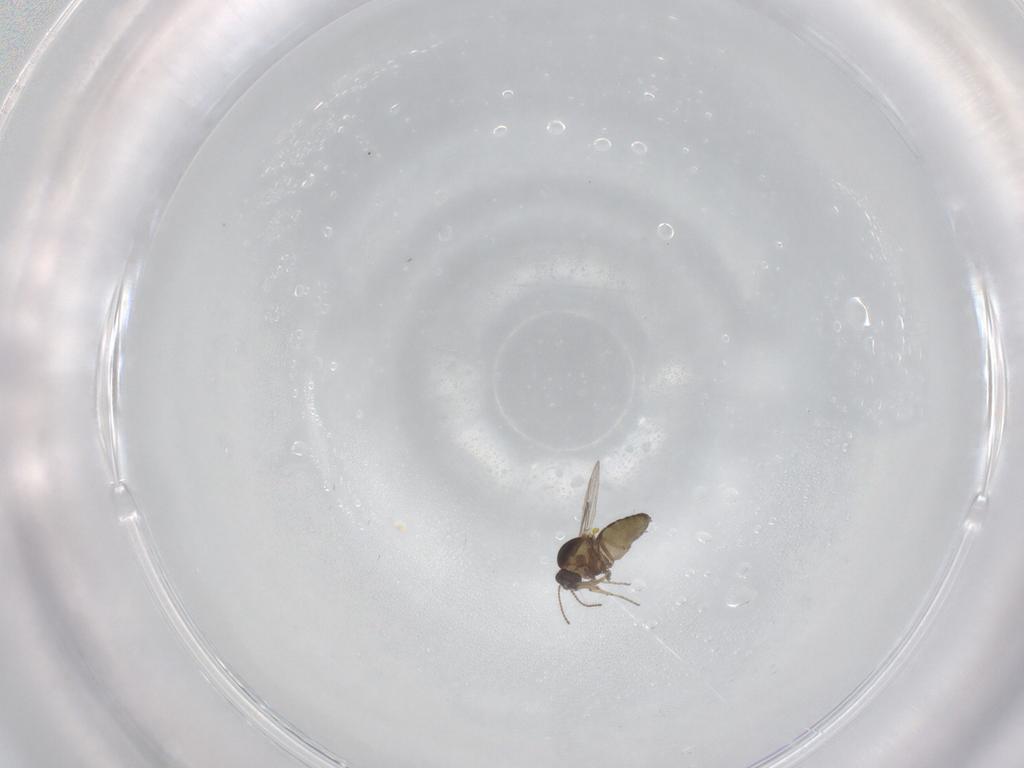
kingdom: Animalia
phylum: Arthropoda
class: Insecta
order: Diptera
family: Ceratopogonidae
